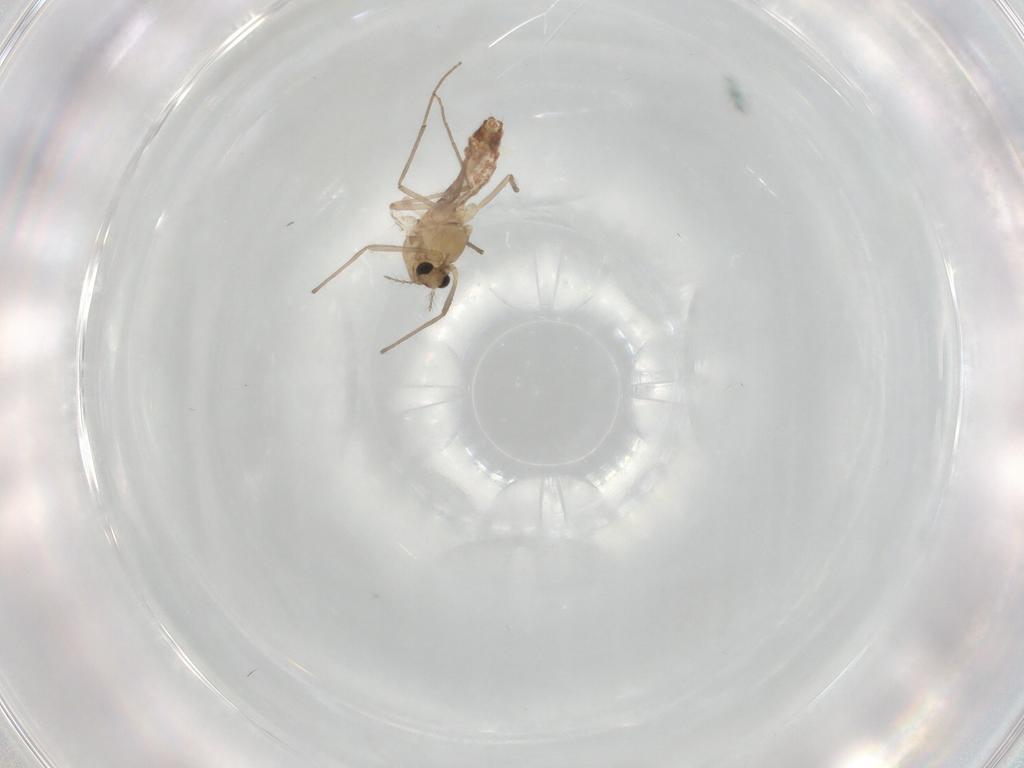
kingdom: Animalia
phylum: Arthropoda
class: Insecta
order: Diptera
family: Chironomidae
